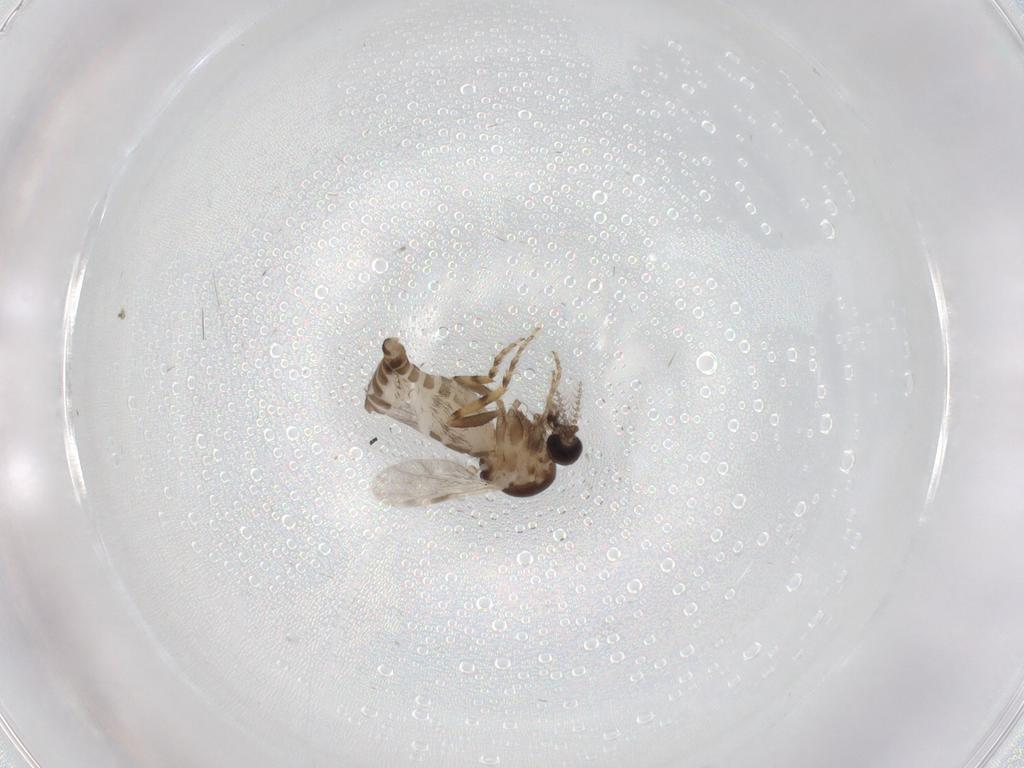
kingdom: Animalia
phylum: Arthropoda
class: Insecta
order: Diptera
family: Ceratopogonidae
